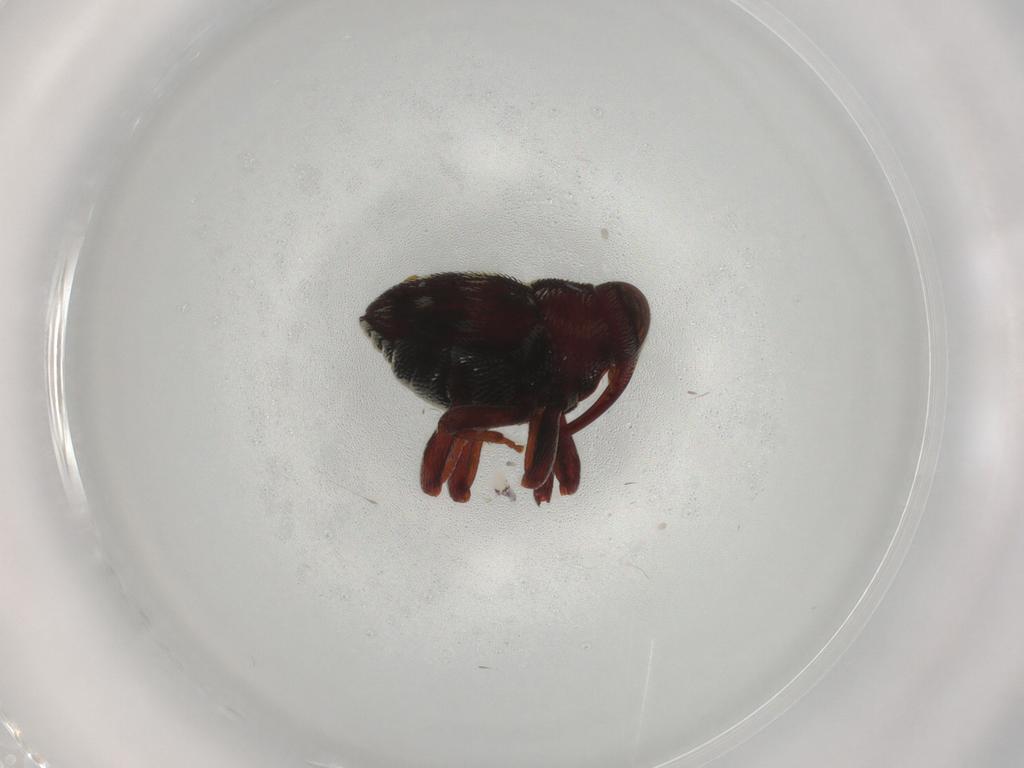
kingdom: Animalia
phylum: Arthropoda
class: Insecta
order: Coleoptera
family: Curculionidae
